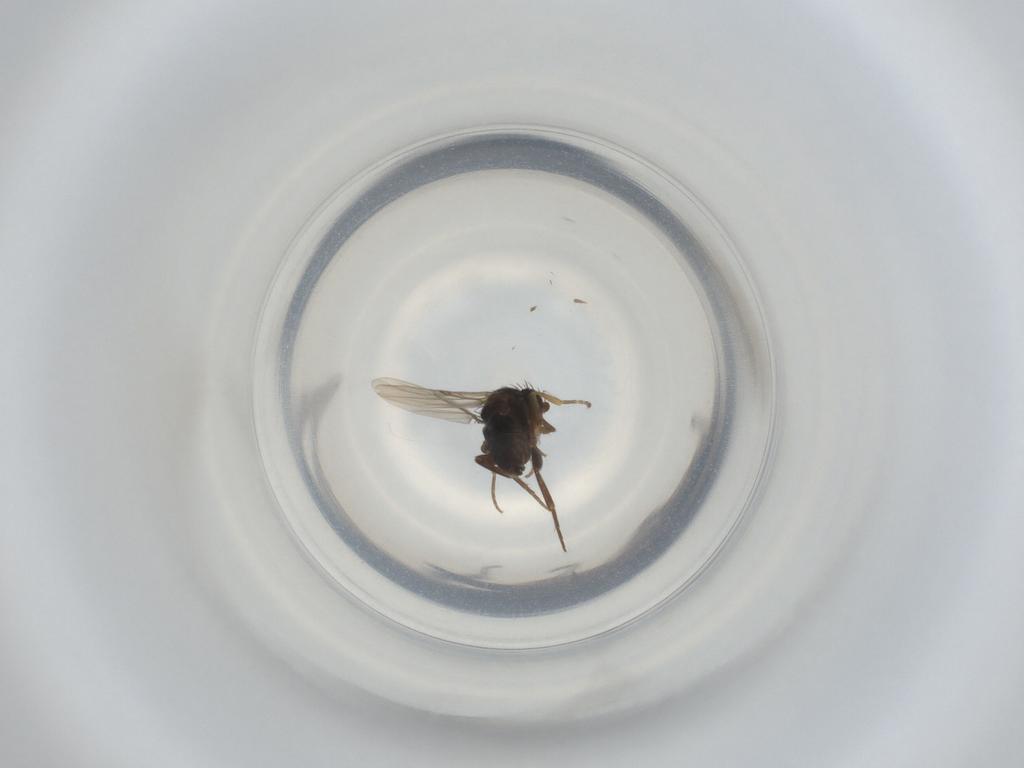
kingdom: Animalia
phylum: Arthropoda
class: Insecta
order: Diptera
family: Phoridae
